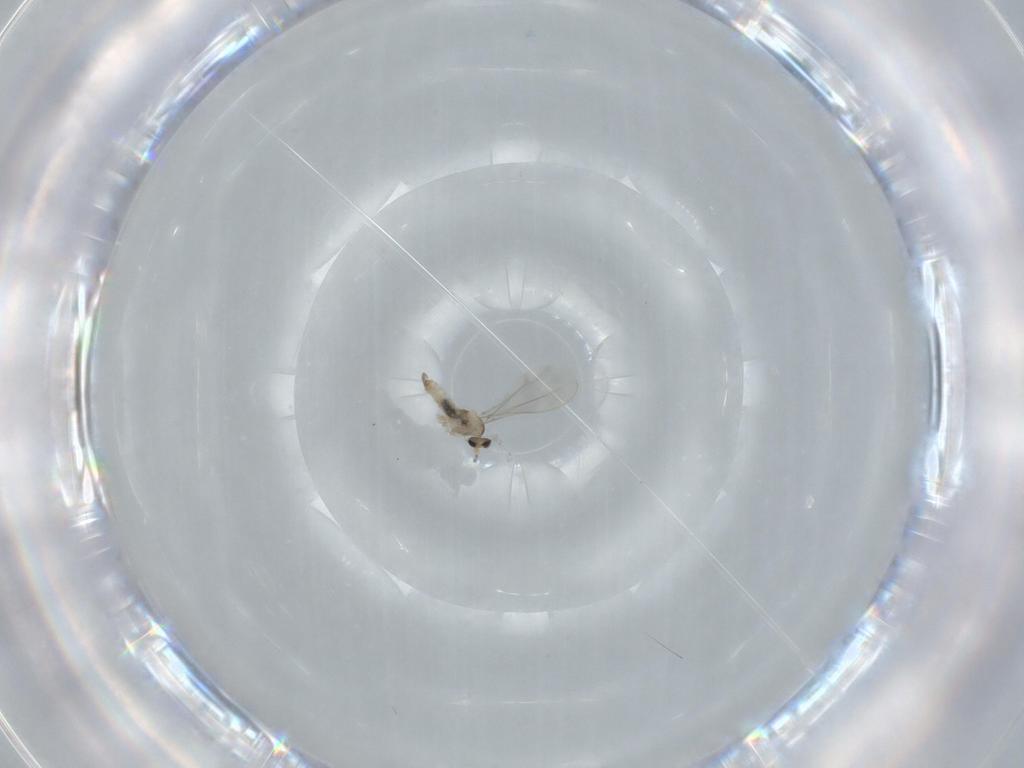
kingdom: Animalia
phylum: Arthropoda
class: Insecta
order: Diptera
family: Cecidomyiidae
